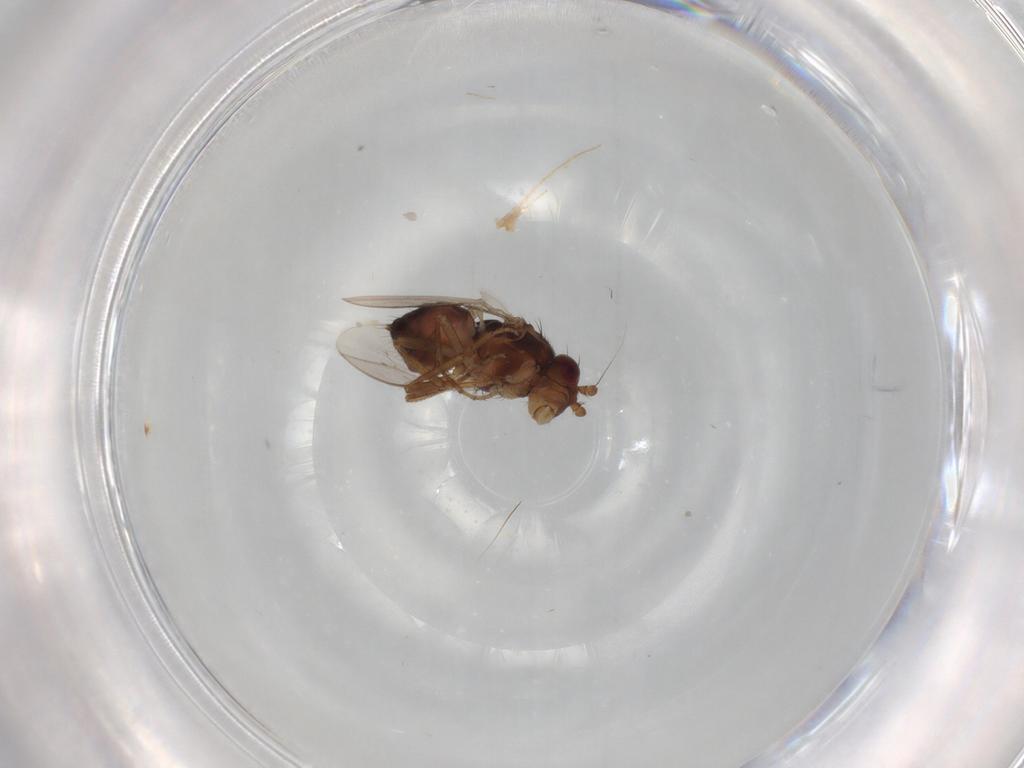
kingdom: Animalia
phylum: Arthropoda
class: Insecta
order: Diptera
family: Sphaeroceridae
